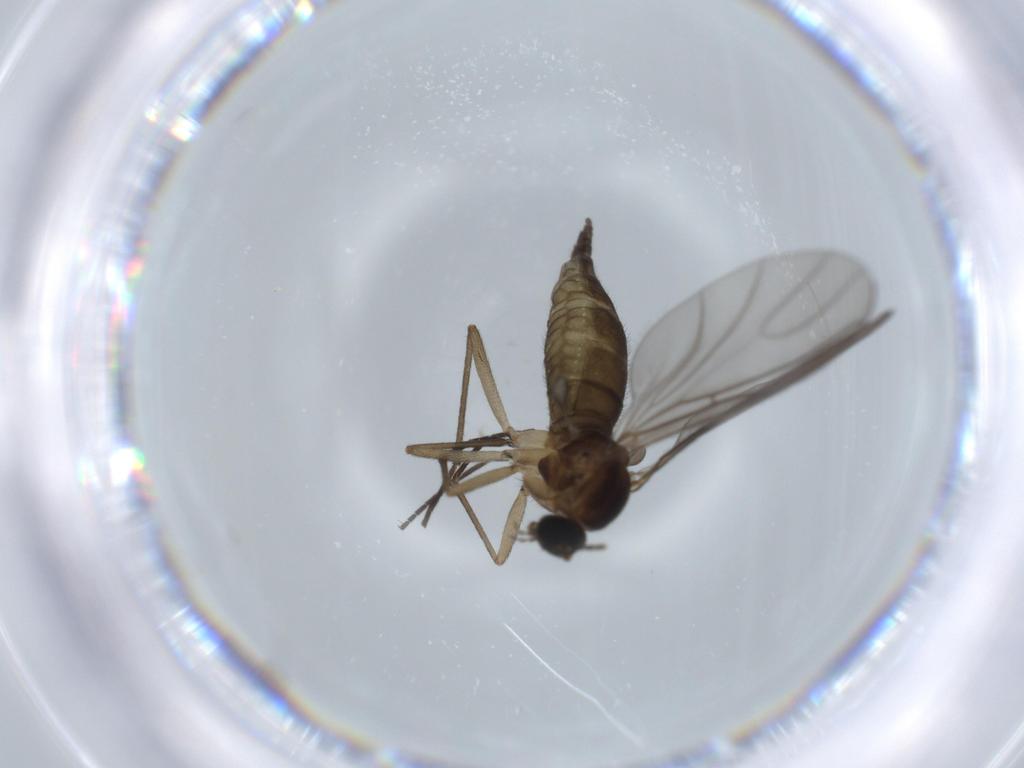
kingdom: Animalia
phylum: Arthropoda
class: Insecta
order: Diptera
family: Sciaridae
